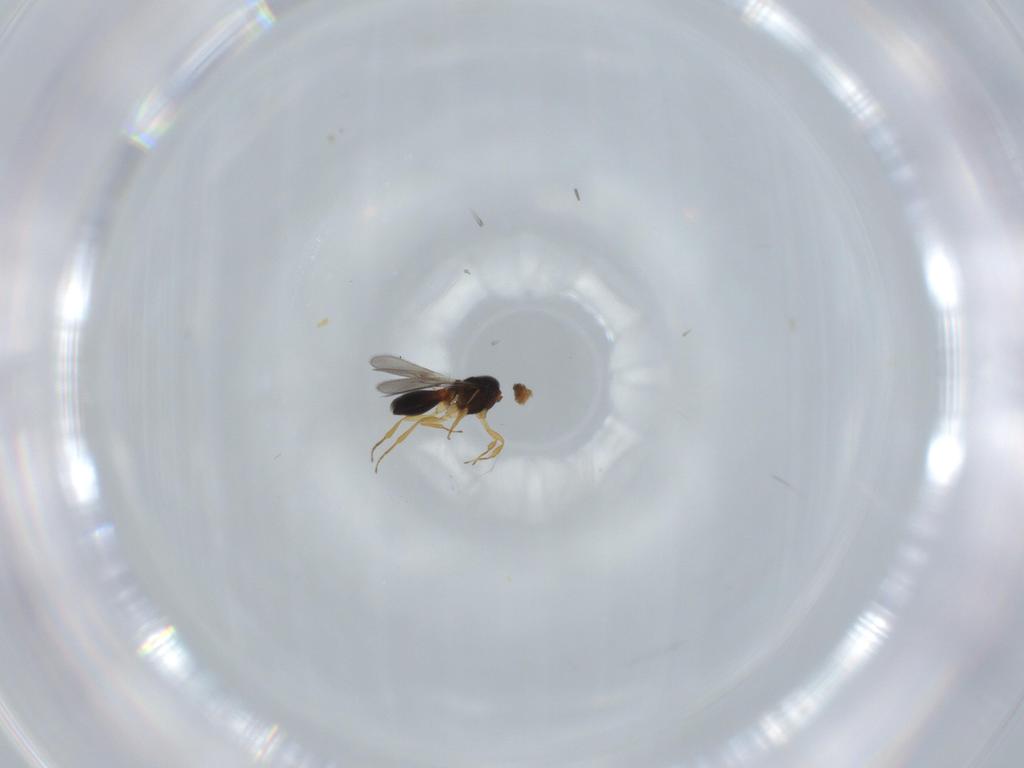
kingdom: Animalia
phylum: Arthropoda
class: Insecta
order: Hymenoptera
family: Scelionidae
